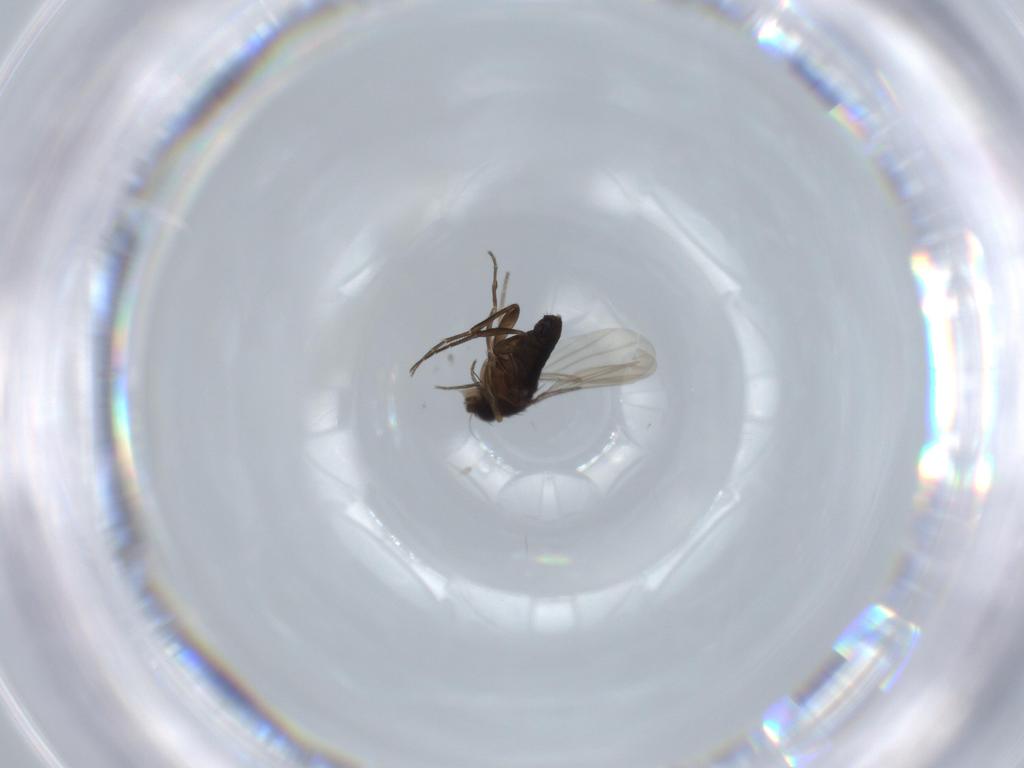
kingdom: Animalia
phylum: Arthropoda
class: Insecta
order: Diptera
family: Phoridae
